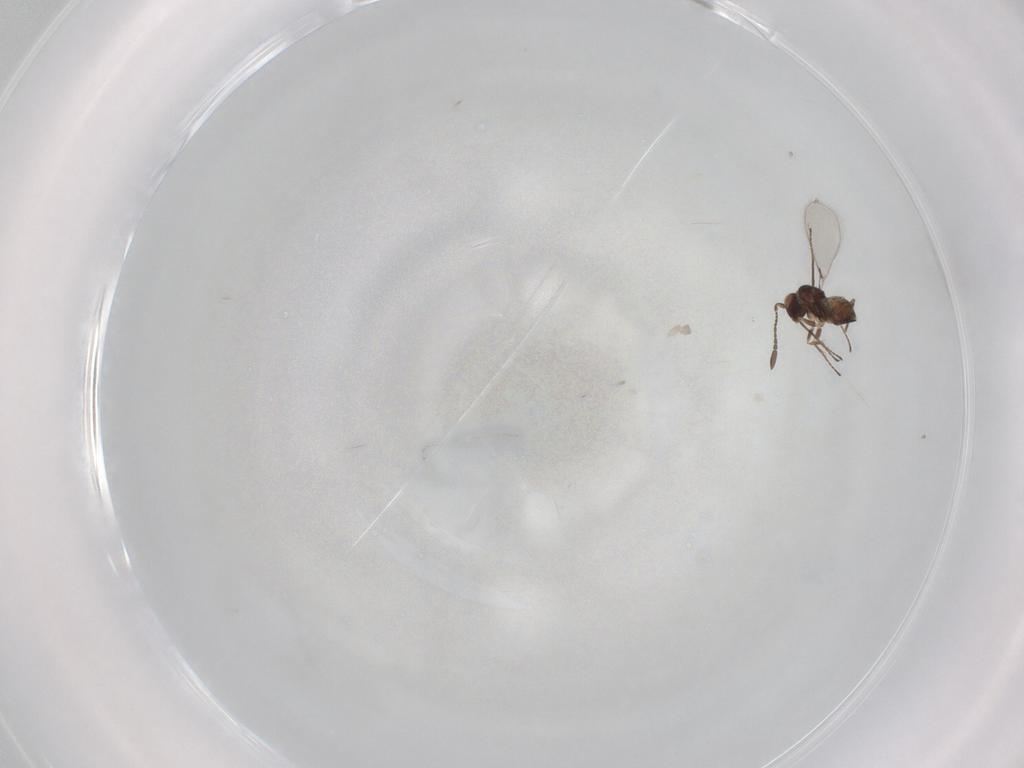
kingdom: Animalia
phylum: Arthropoda
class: Insecta
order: Hymenoptera
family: Mymaridae
